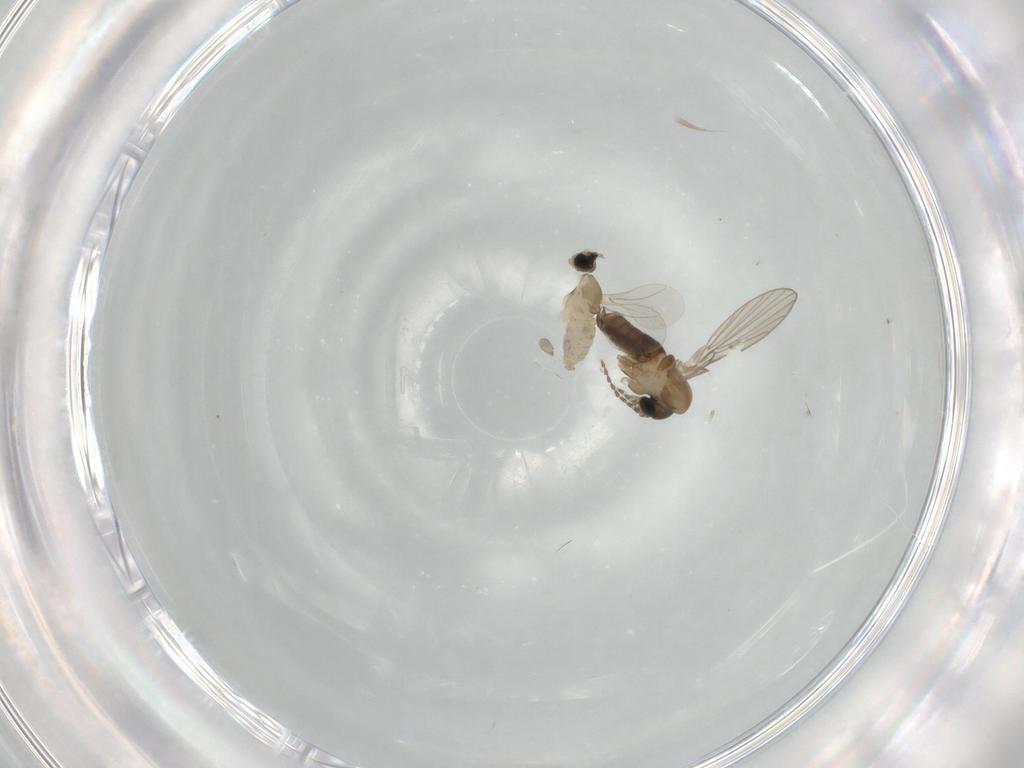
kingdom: Animalia
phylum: Arthropoda
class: Insecta
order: Diptera
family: Cecidomyiidae
